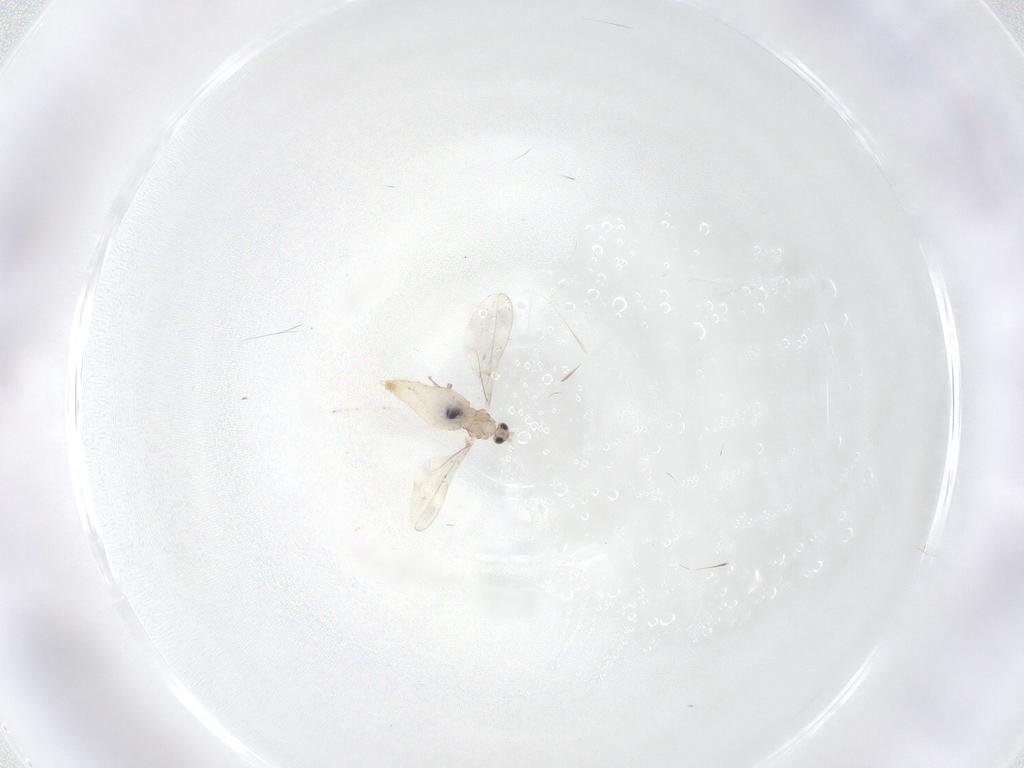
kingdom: Animalia
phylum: Arthropoda
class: Insecta
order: Diptera
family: Cecidomyiidae
